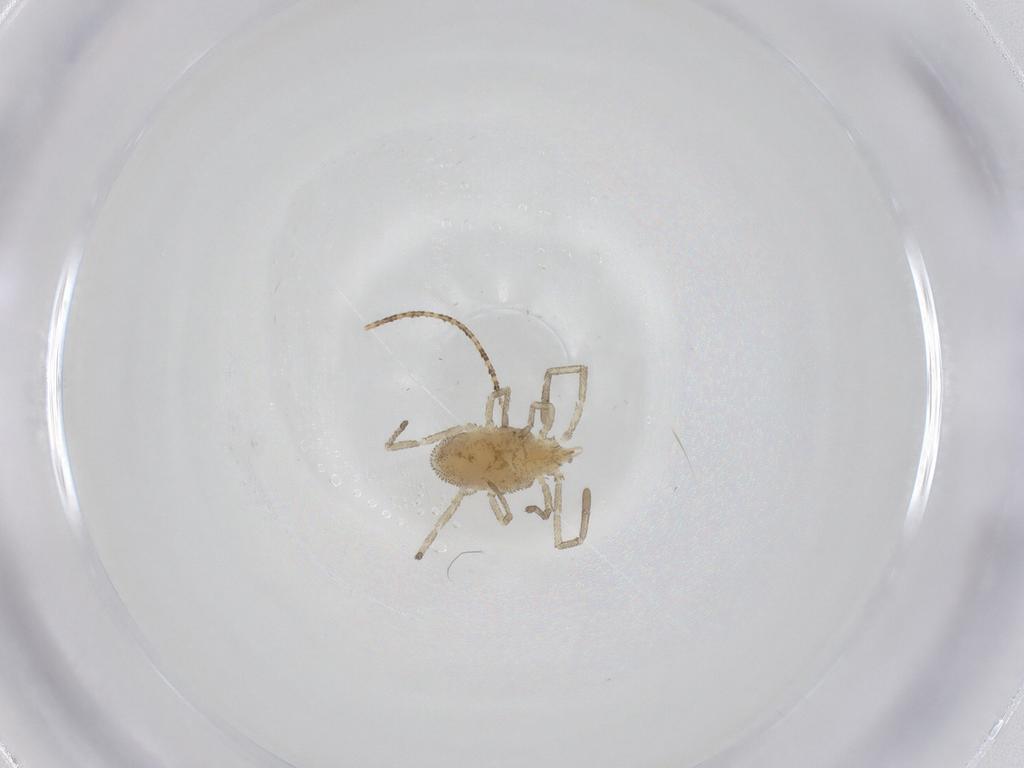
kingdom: Animalia
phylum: Arthropoda
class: Arachnida
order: Trombidiformes
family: Smarididae
